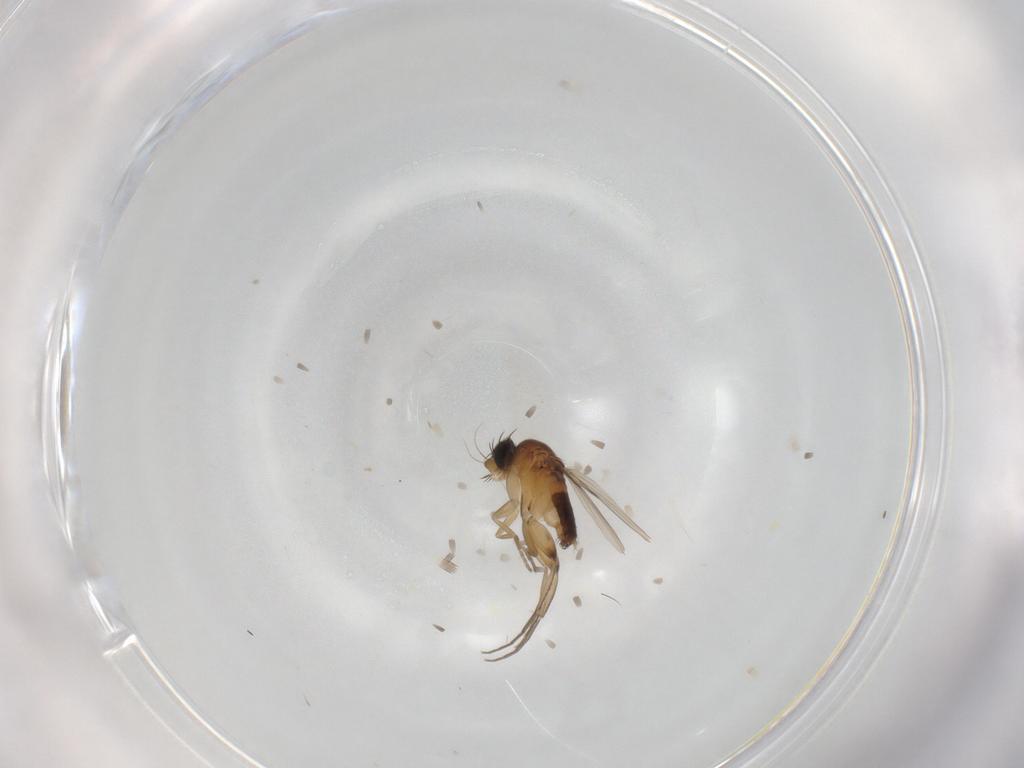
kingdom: Animalia
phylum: Arthropoda
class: Insecta
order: Diptera
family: Phoridae
